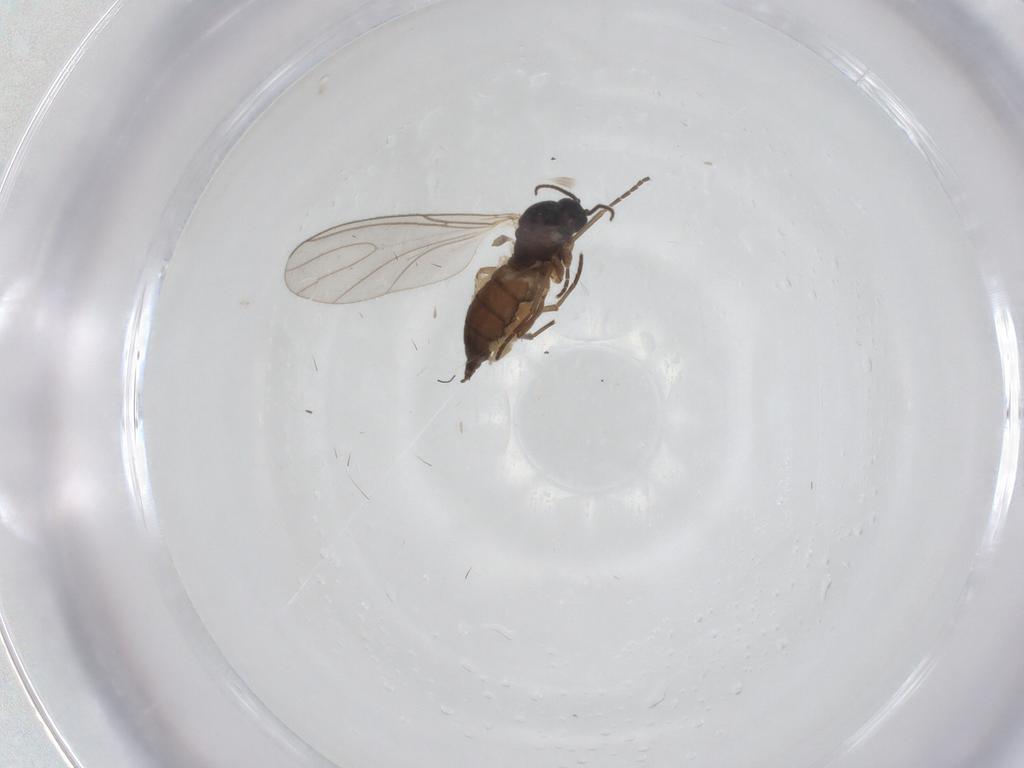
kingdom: Animalia
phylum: Arthropoda
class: Insecta
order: Diptera
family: Sciaridae
